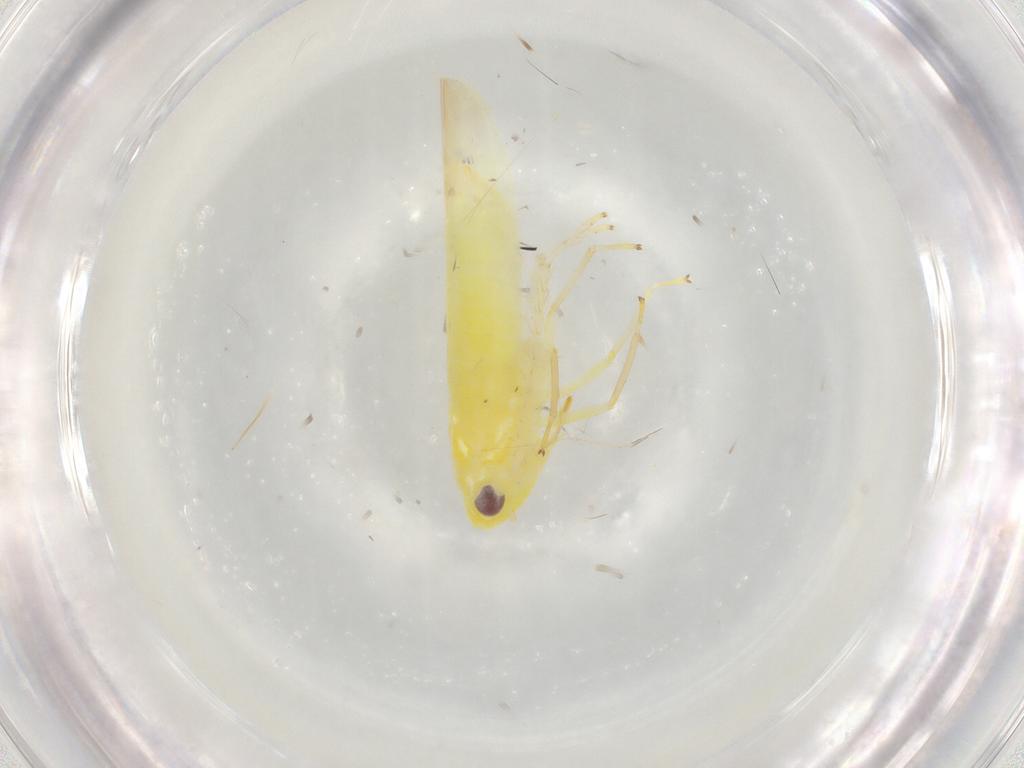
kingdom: Animalia
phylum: Arthropoda
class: Insecta
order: Hemiptera
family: Cicadellidae
